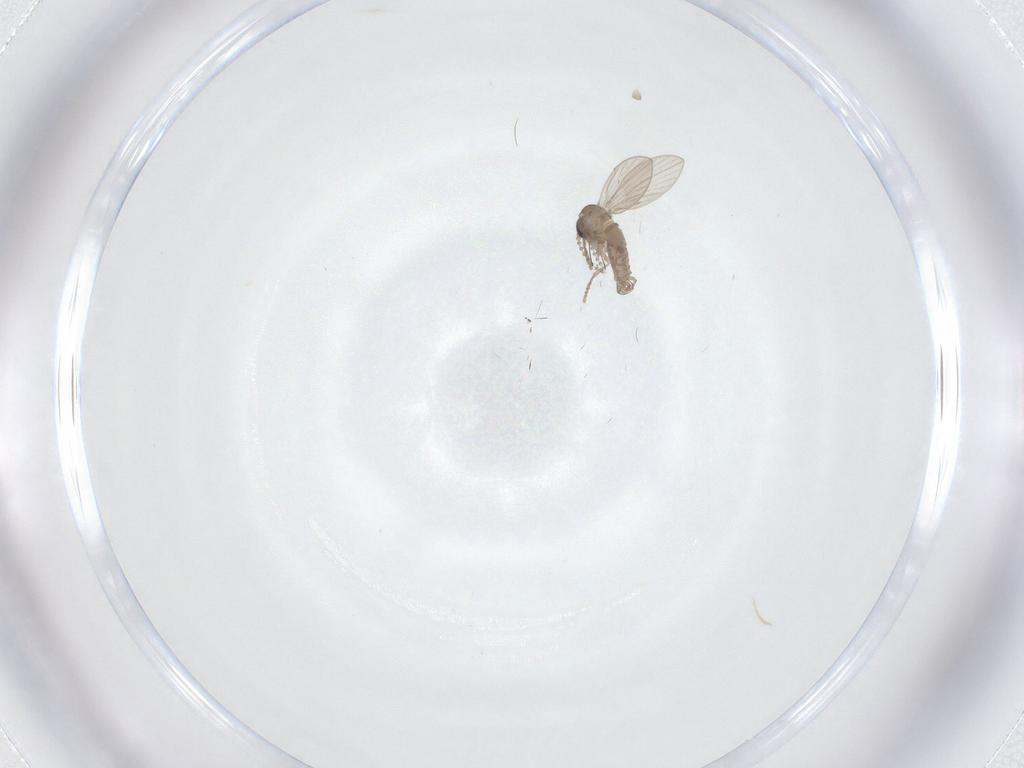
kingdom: Animalia
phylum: Arthropoda
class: Insecta
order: Diptera
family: Psychodidae
